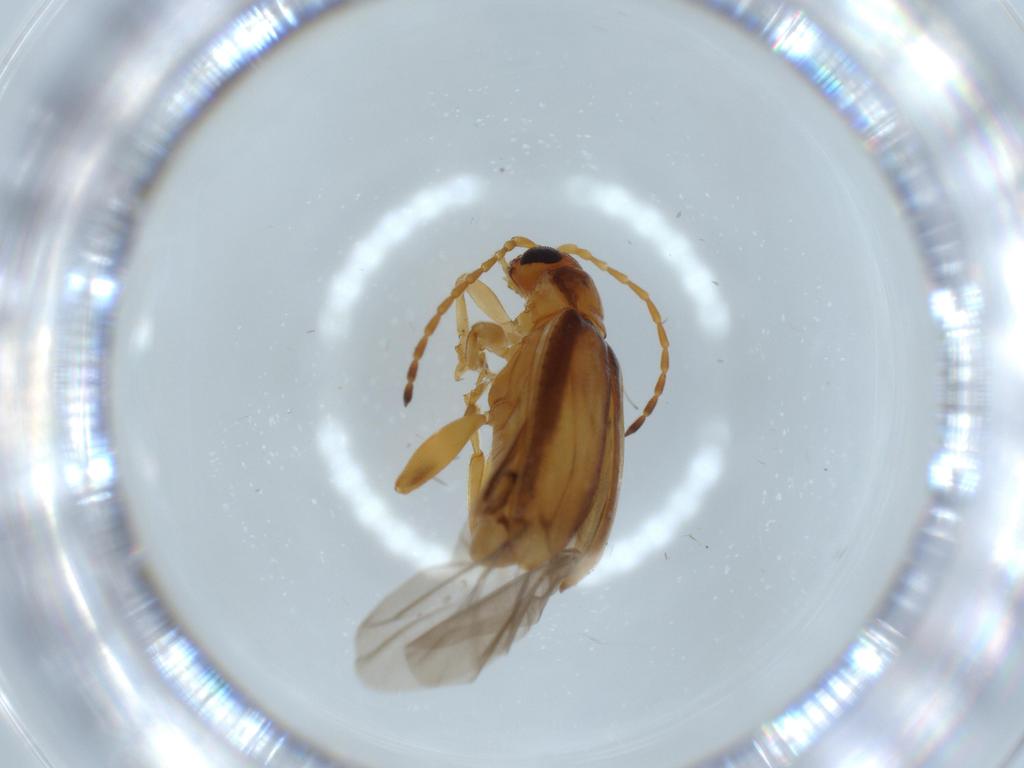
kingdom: Animalia
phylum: Arthropoda
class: Insecta
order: Coleoptera
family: Chrysomelidae
